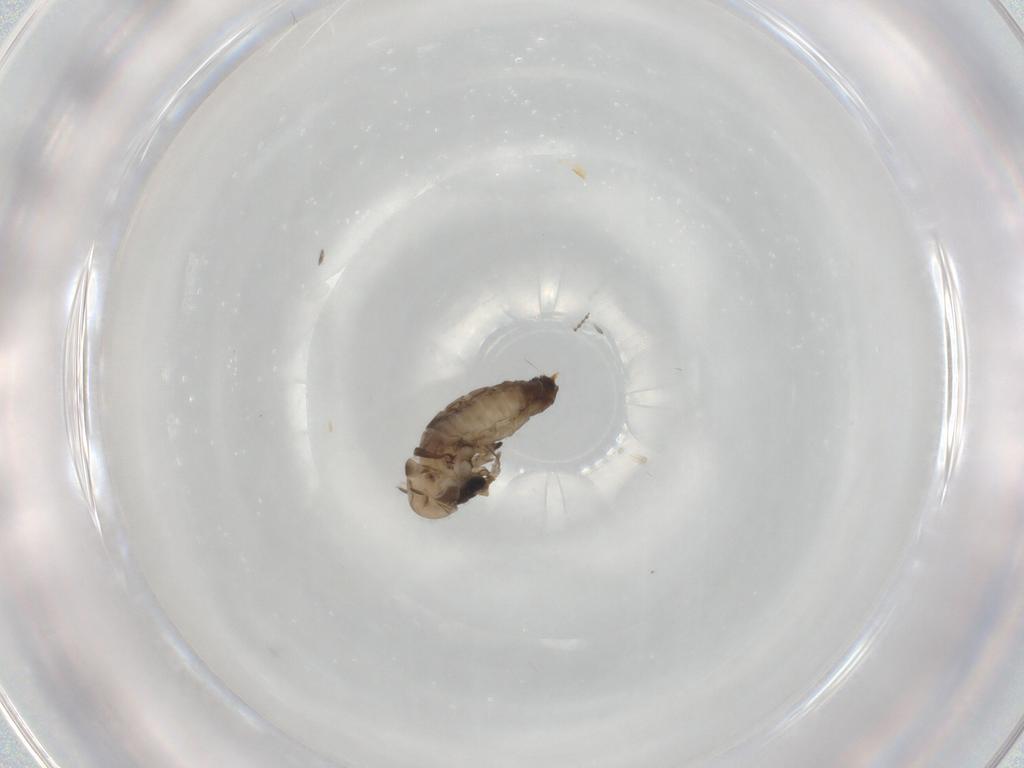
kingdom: Animalia
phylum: Arthropoda
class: Insecta
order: Diptera
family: Psychodidae
